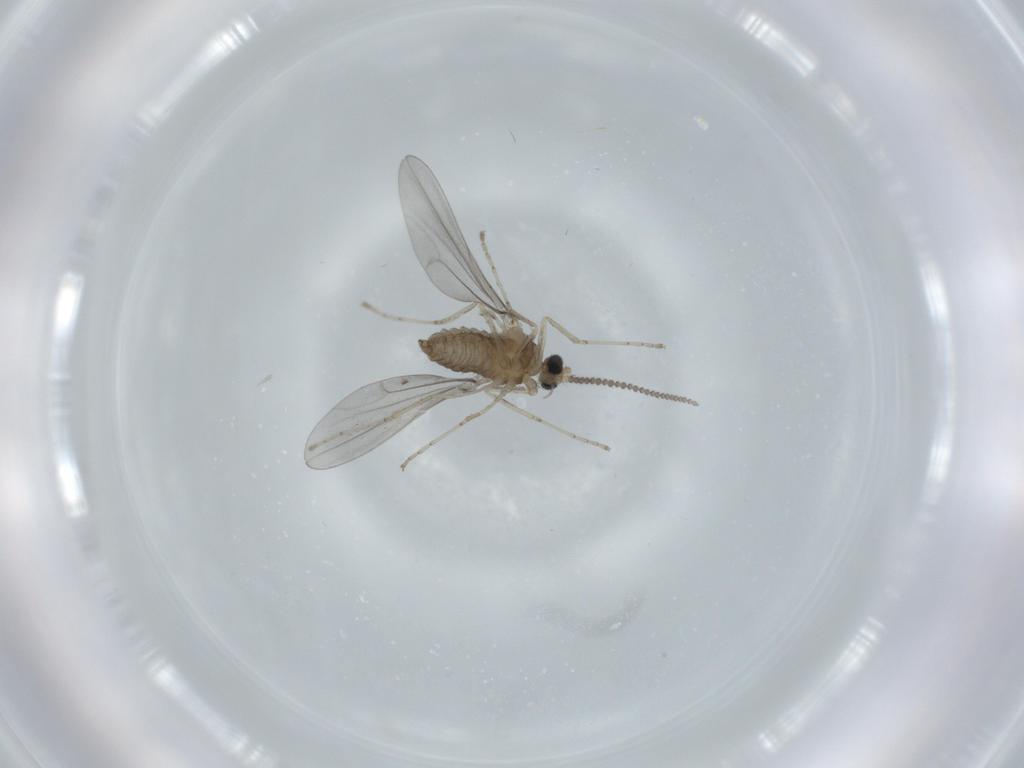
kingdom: Animalia
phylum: Arthropoda
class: Insecta
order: Diptera
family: Cecidomyiidae
